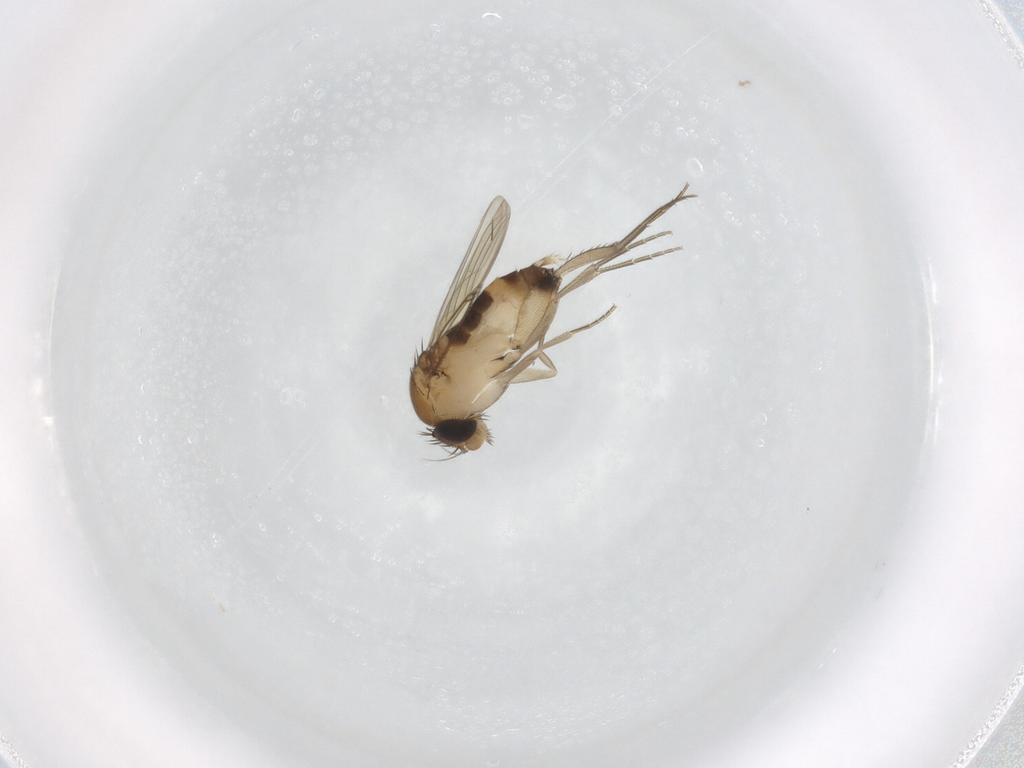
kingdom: Animalia
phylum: Arthropoda
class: Insecta
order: Diptera
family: Phoridae
